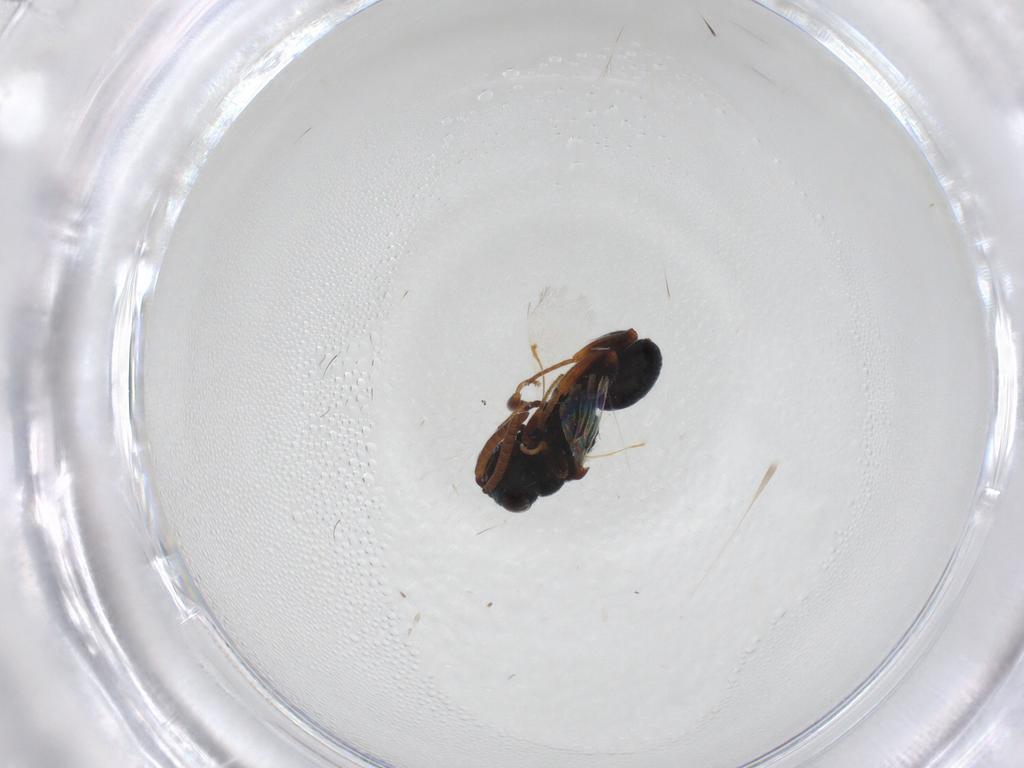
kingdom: Animalia
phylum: Arthropoda
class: Insecta
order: Hymenoptera
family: Chalcididae
